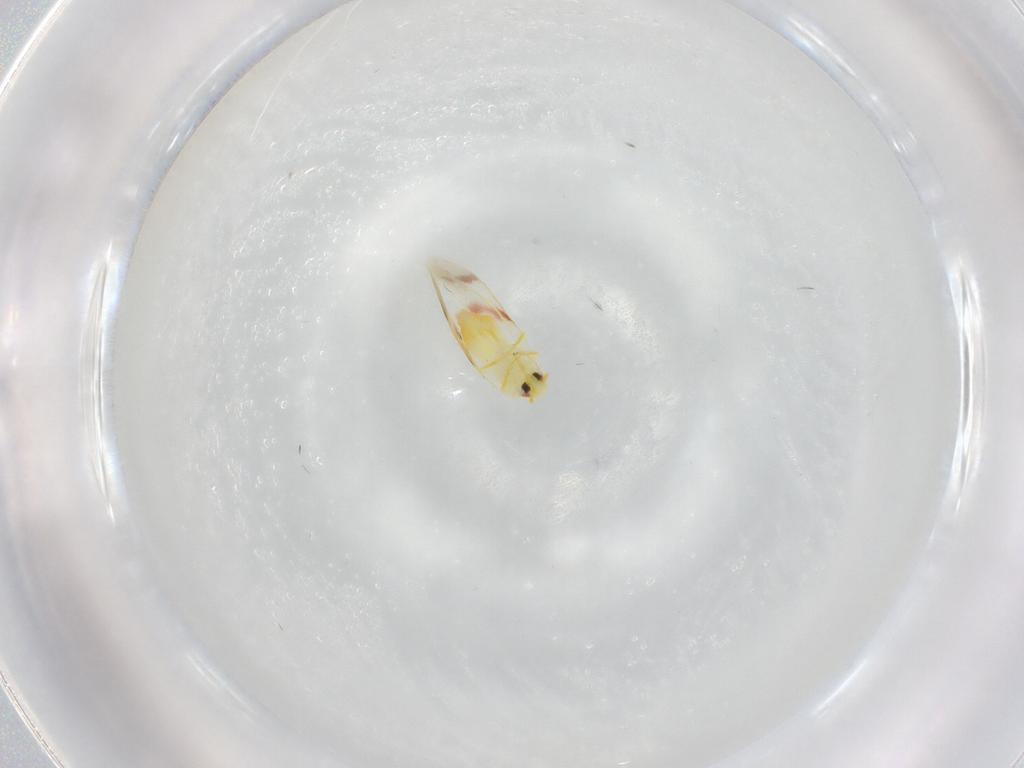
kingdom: Animalia
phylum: Arthropoda
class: Insecta
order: Hemiptera
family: Aleyrodidae
